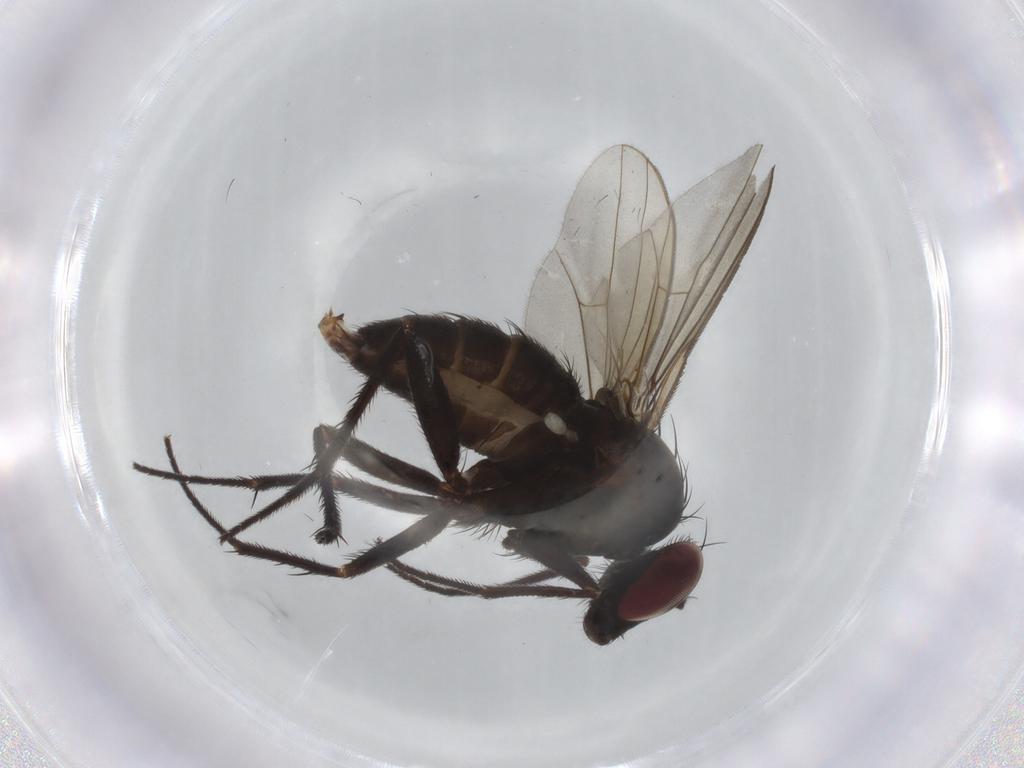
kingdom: Animalia
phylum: Arthropoda
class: Insecta
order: Diptera
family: Dolichopodidae
